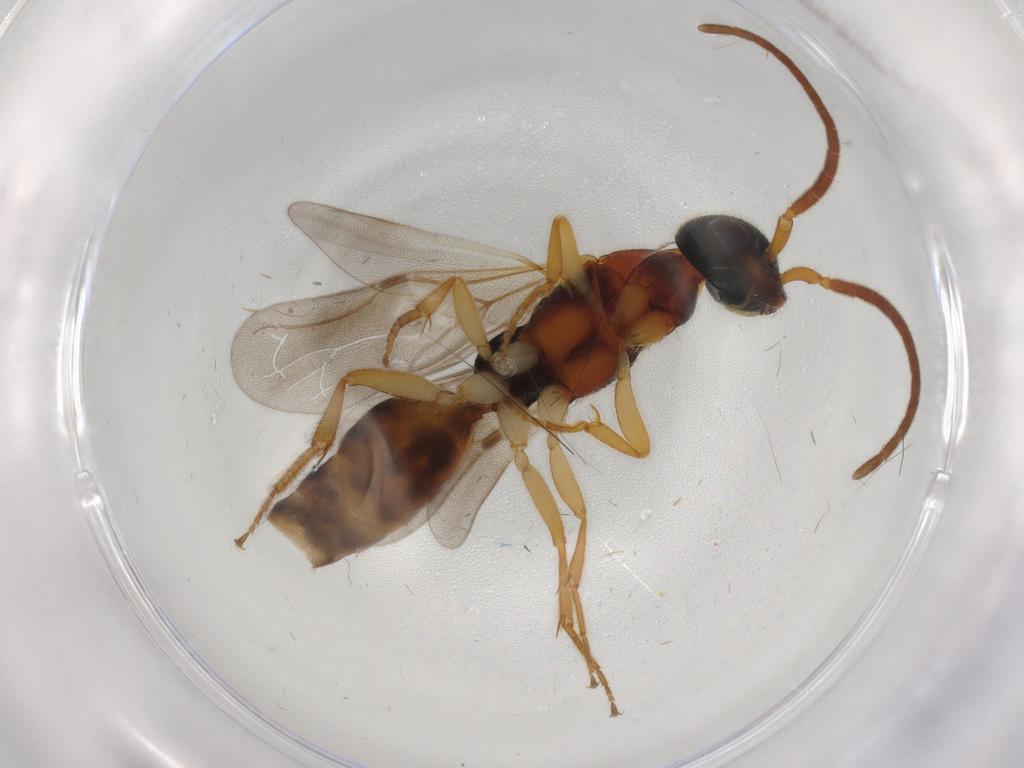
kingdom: Animalia
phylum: Arthropoda
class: Insecta
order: Hymenoptera
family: Bethylidae
